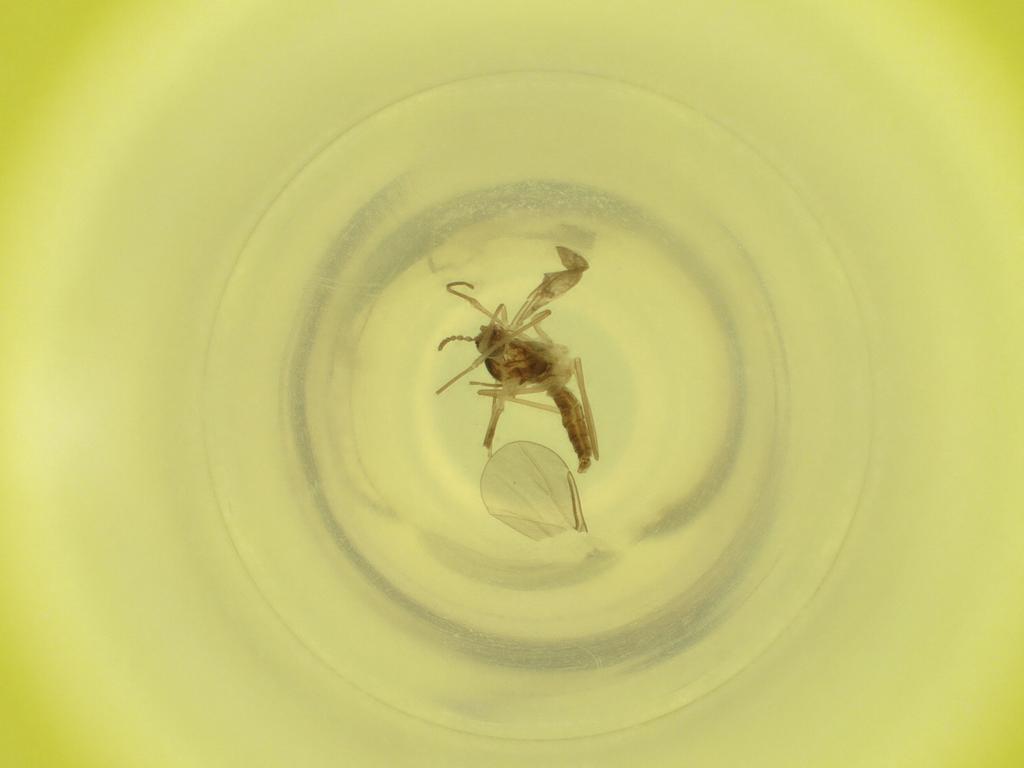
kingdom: Animalia
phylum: Arthropoda
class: Insecta
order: Diptera
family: Cecidomyiidae
